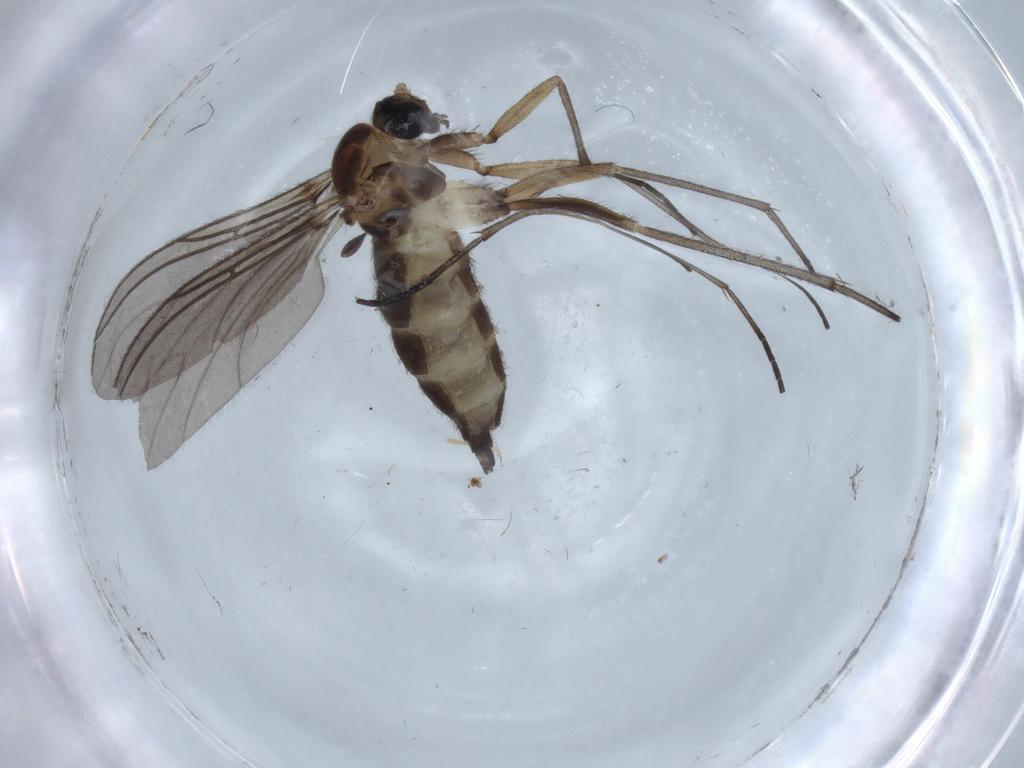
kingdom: Animalia
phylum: Arthropoda
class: Insecta
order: Diptera
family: Sciaridae
